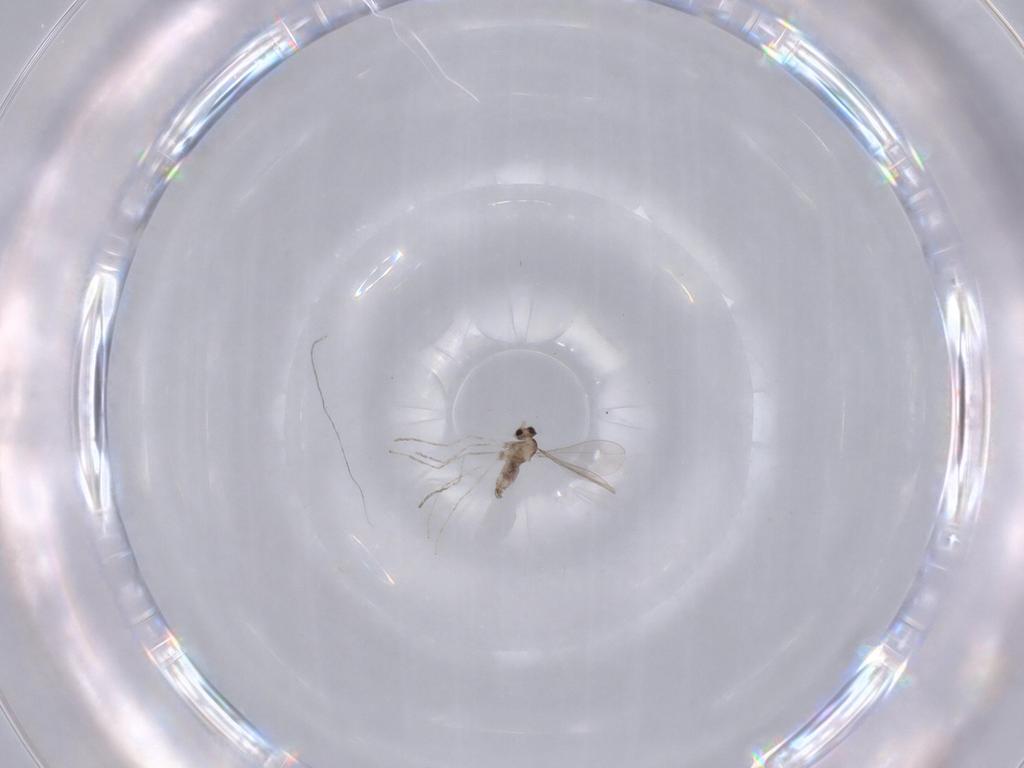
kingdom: Animalia
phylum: Arthropoda
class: Insecta
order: Diptera
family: Cecidomyiidae
